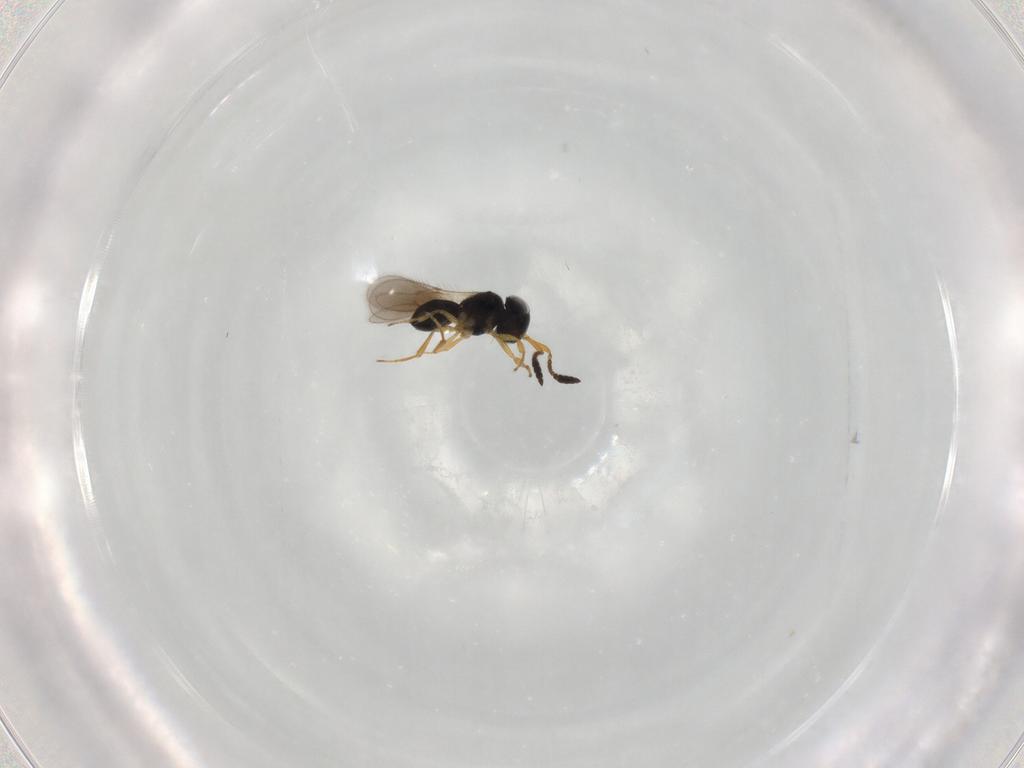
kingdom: Animalia
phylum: Arthropoda
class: Insecta
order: Hymenoptera
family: Scelionidae
